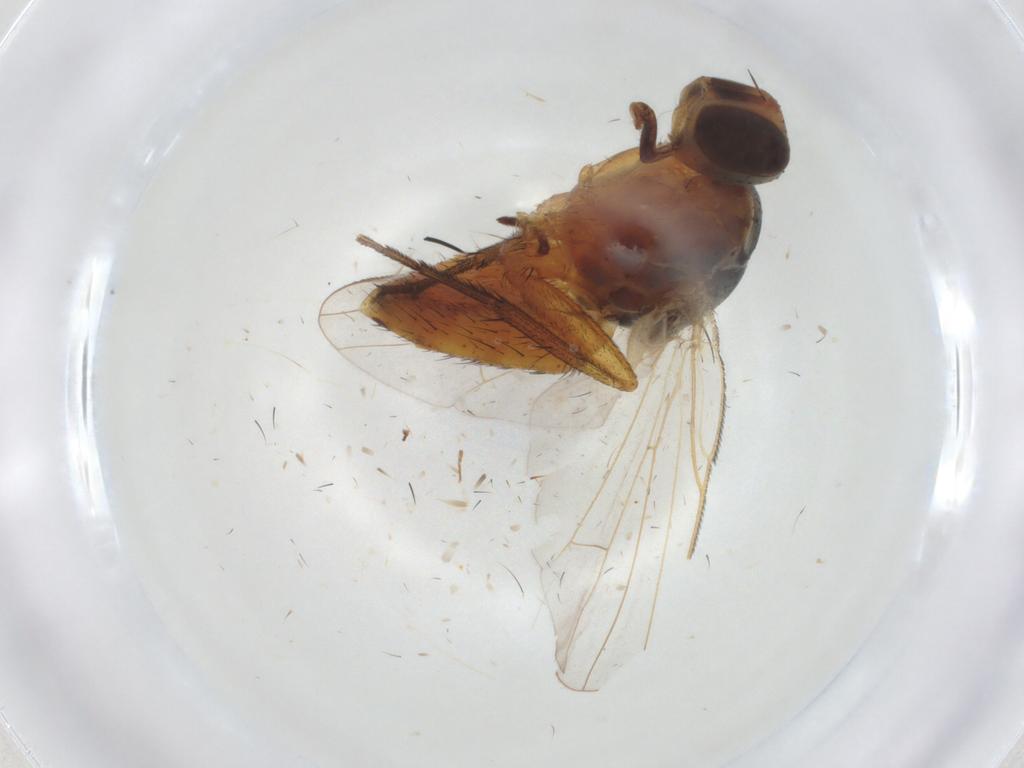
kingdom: Animalia
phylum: Arthropoda
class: Insecta
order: Diptera
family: Muscidae
